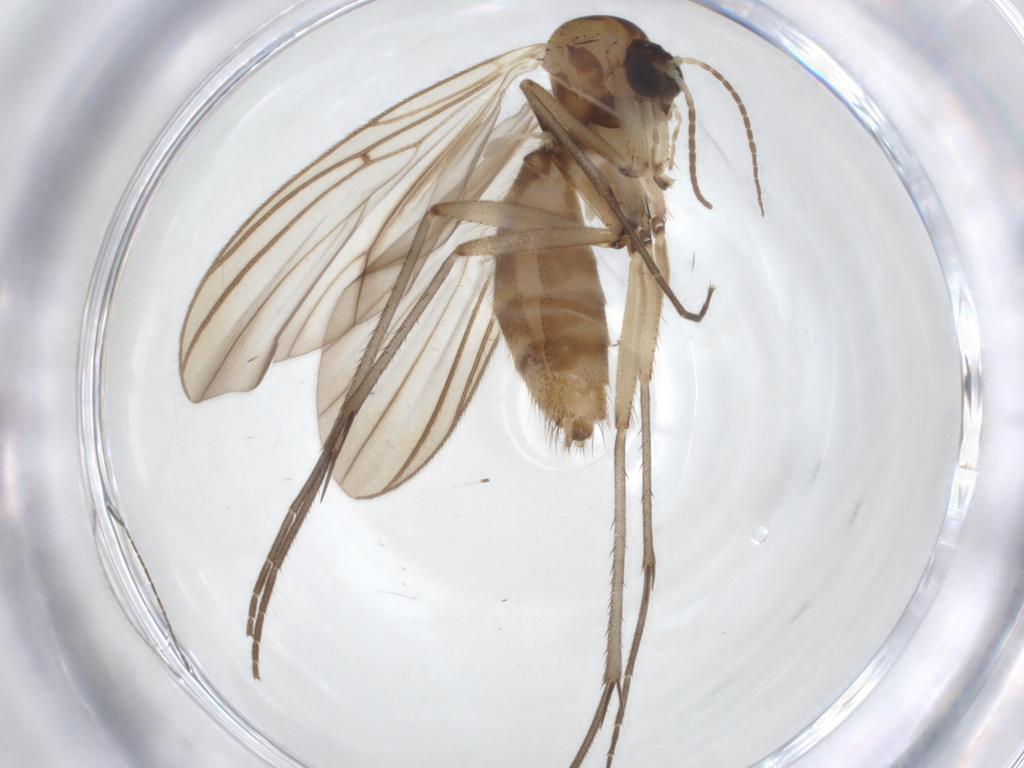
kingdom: Animalia
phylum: Arthropoda
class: Insecta
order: Diptera
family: Mycetophilidae
